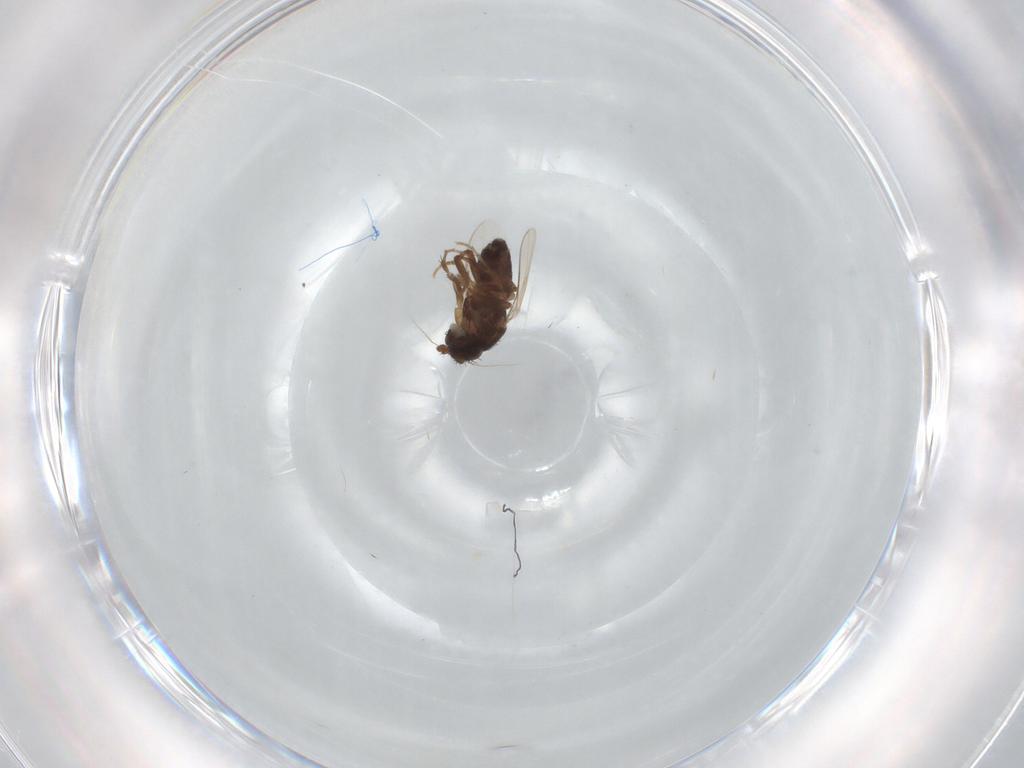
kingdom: Animalia
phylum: Arthropoda
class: Insecta
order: Diptera
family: Sphaeroceridae
